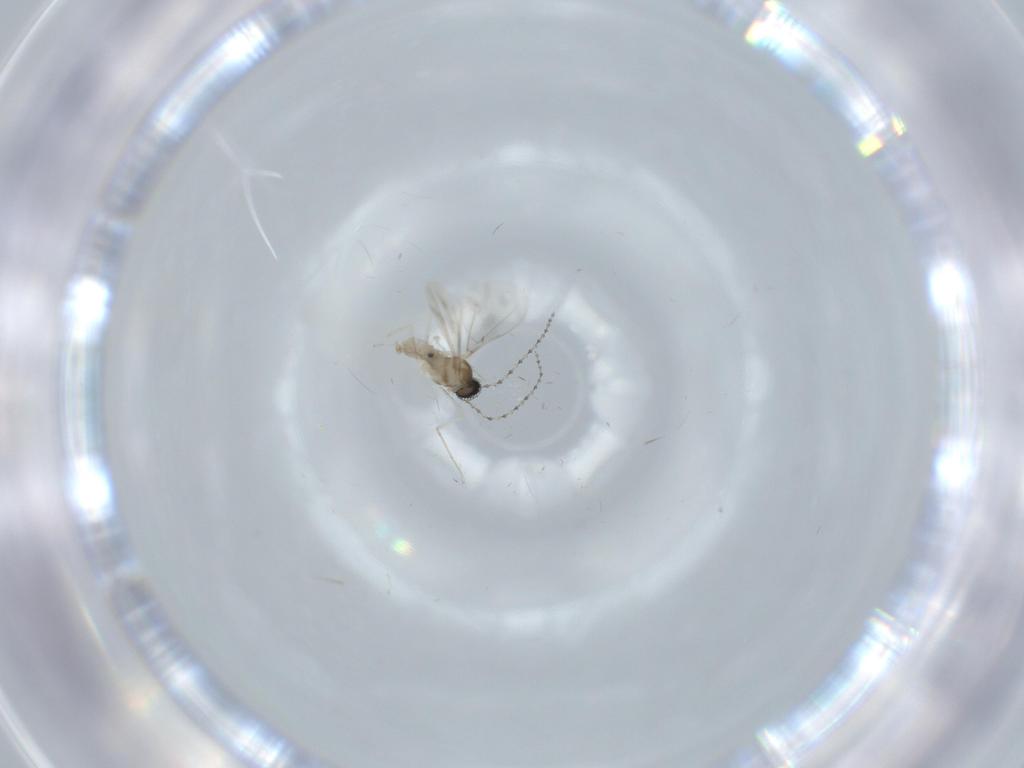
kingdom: Animalia
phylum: Arthropoda
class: Insecta
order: Diptera
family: Cecidomyiidae
